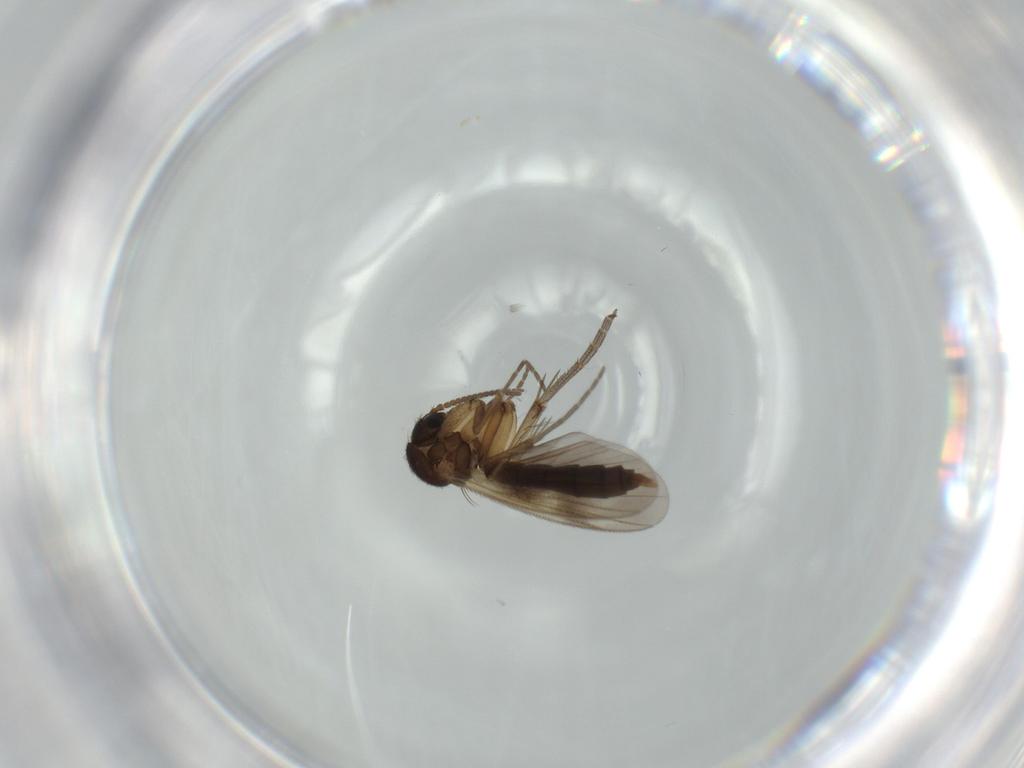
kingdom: Animalia
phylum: Arthropoda
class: Insecta
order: Diptera
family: Mycetophilidae
